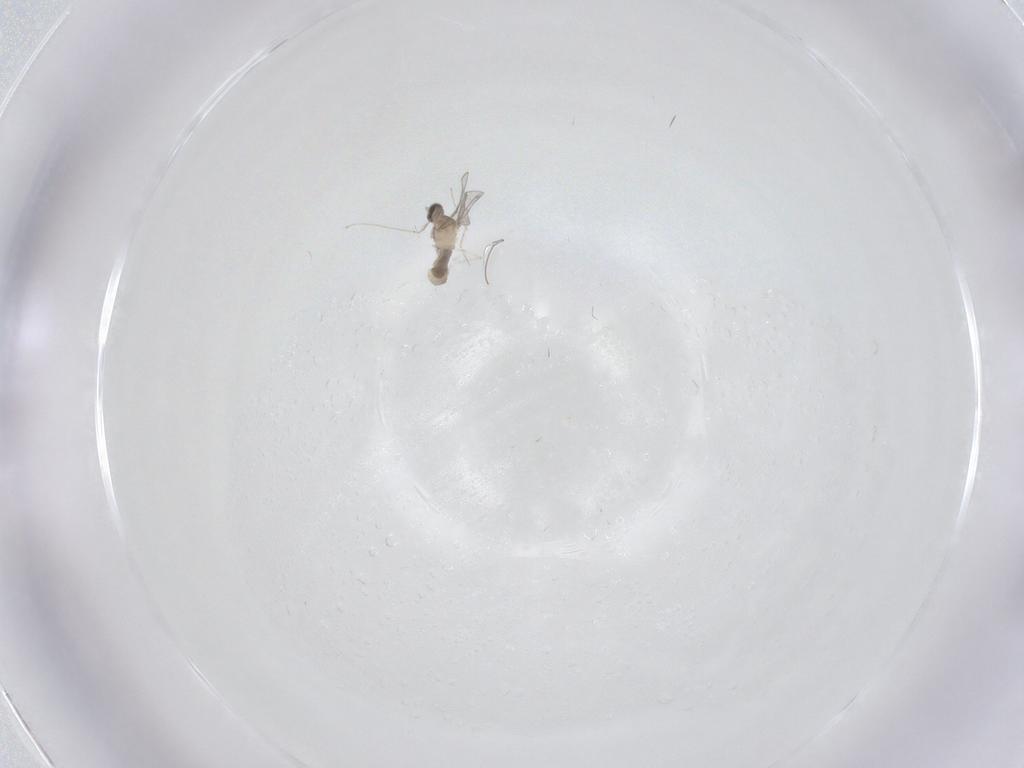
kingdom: Animalia
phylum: Arthropoda
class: Insecta
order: Diptera
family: Cecidomyiidae
